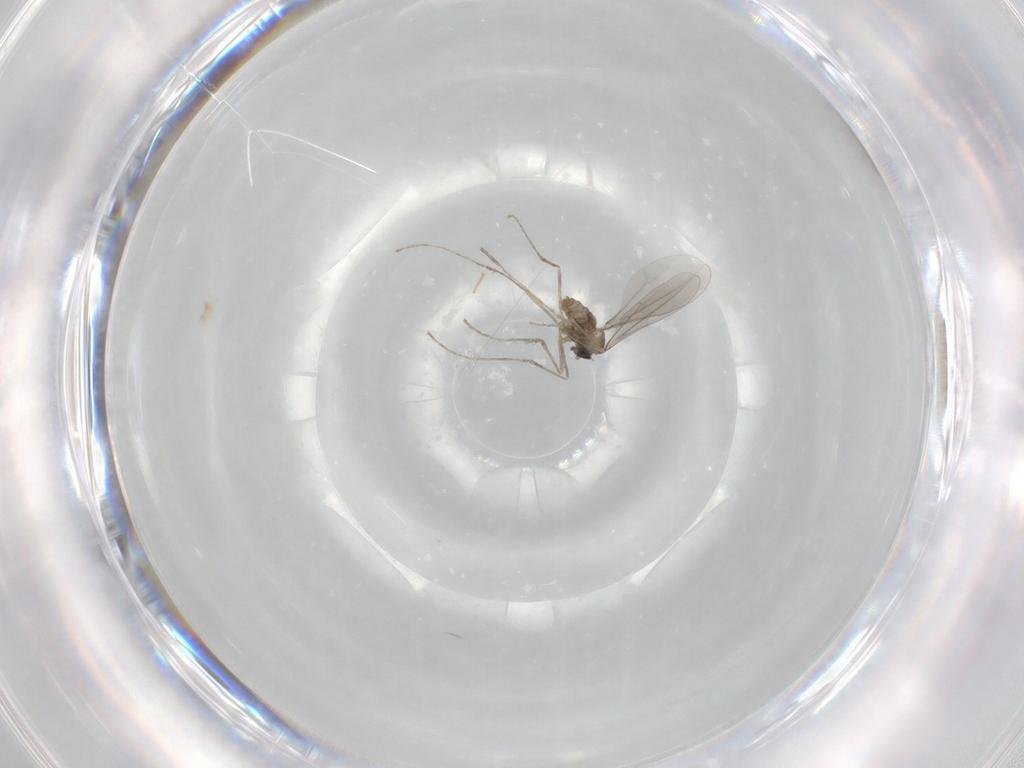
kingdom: Animalia
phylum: Arthropoda
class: Insecta
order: Diptera
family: Cecidomyiidae
